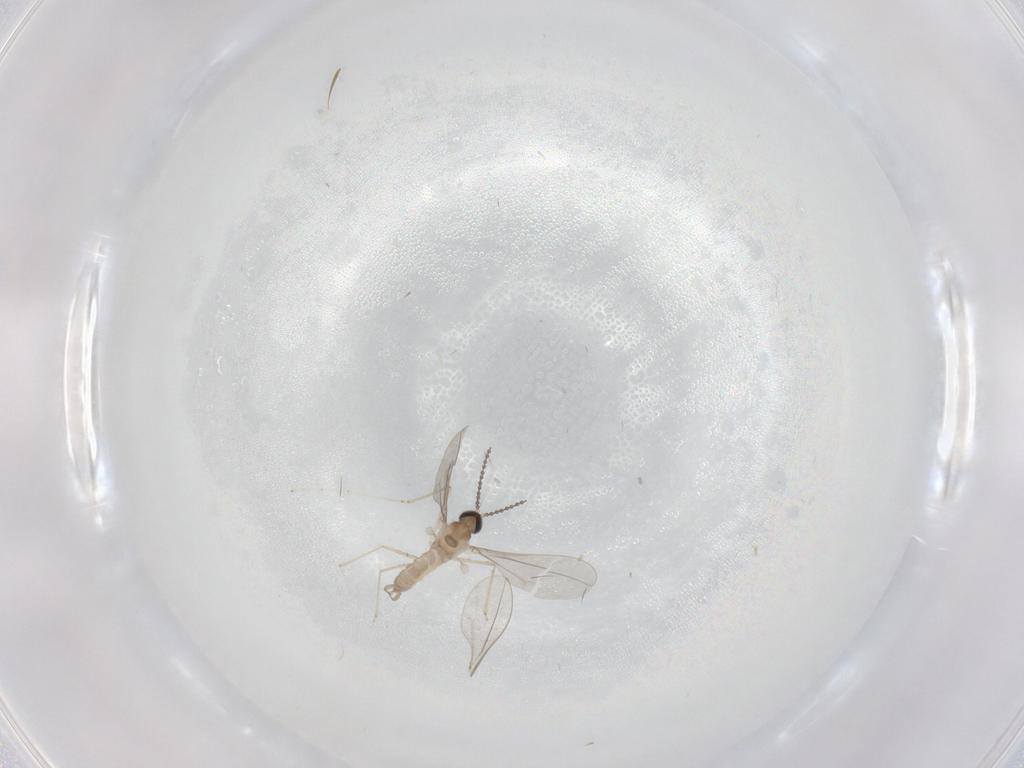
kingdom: Animalia
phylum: Arthropoda
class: Insecta
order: Diptera
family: Cecidomyiidae
